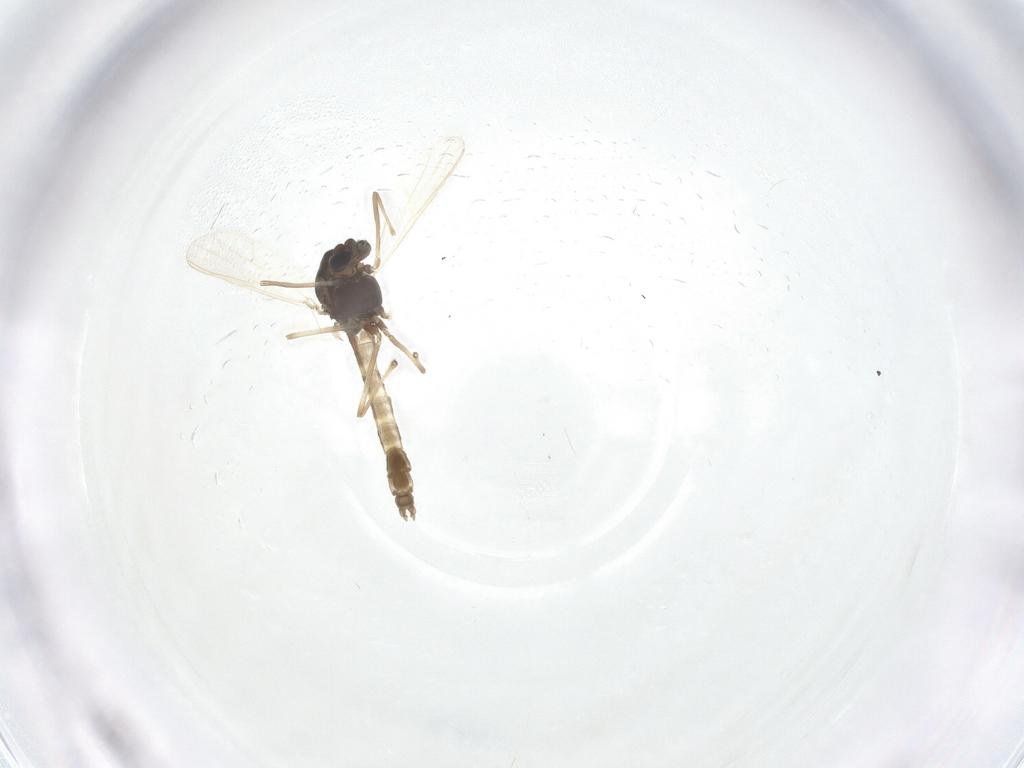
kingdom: Animalia
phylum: Arthropoda
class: Insecta
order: Diptera
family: Chironomidae
